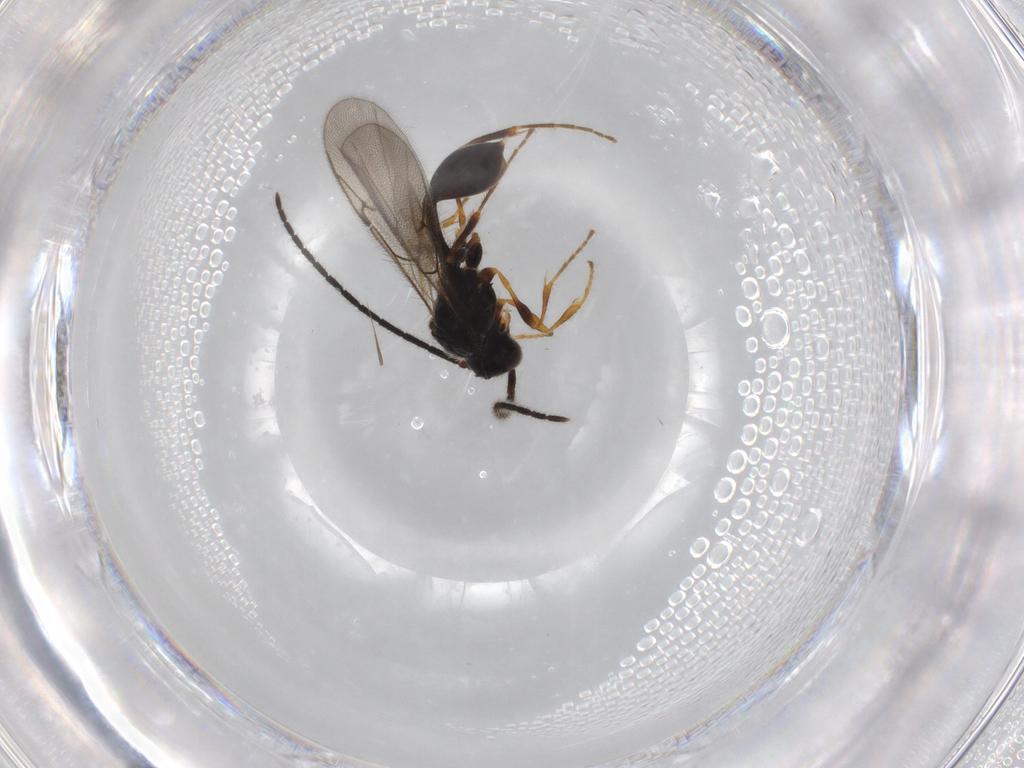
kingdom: Animalia
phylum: Arthropoda
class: Insecta
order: Hymenoptera
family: Diapriidae
